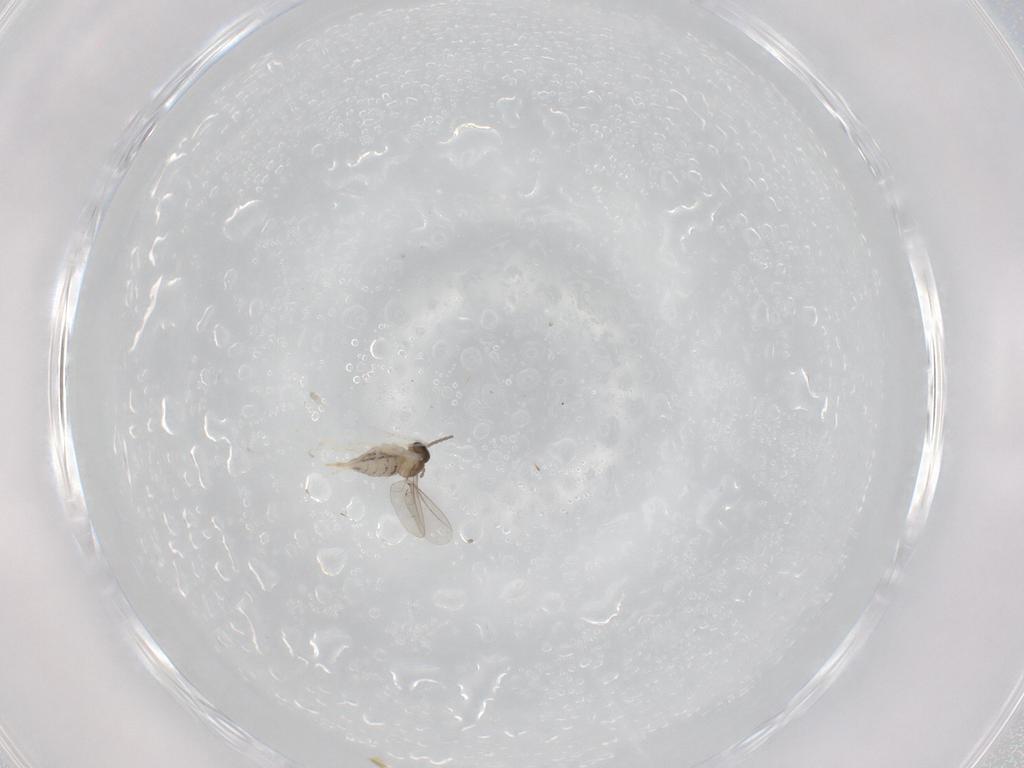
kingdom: Animalia
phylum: Arthropoda
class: Insecta
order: Diptera
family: Cecidomyiidae
